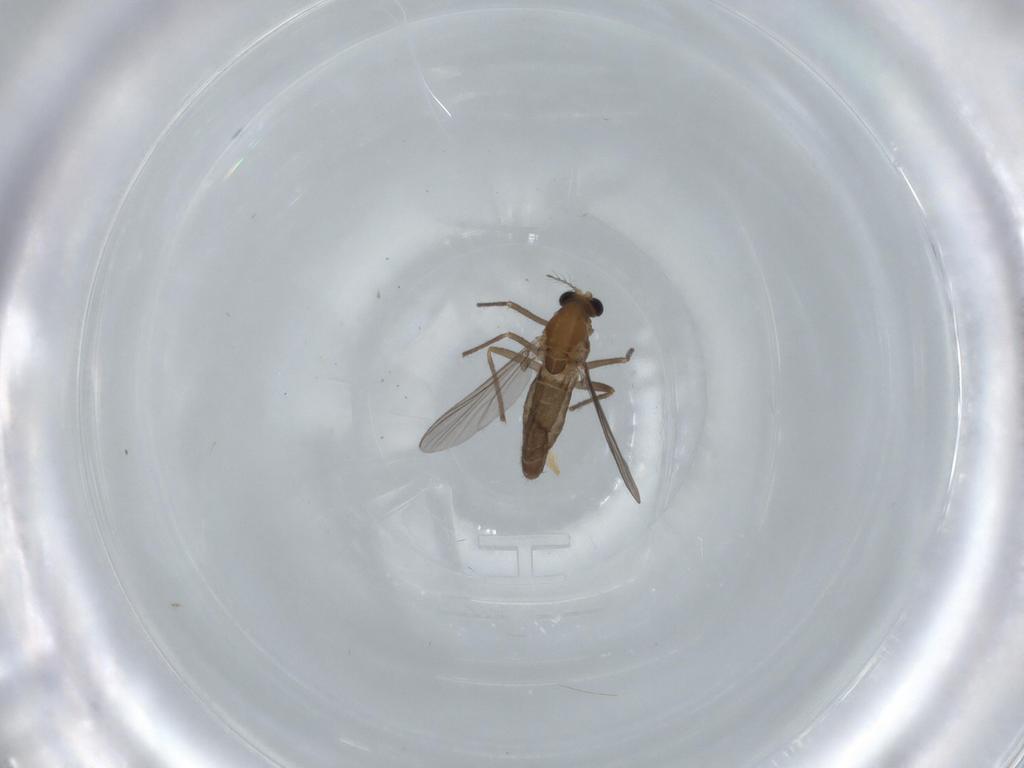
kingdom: Animalia
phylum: Arthropoda
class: Insecta
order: Diptera
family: Chironomidae
